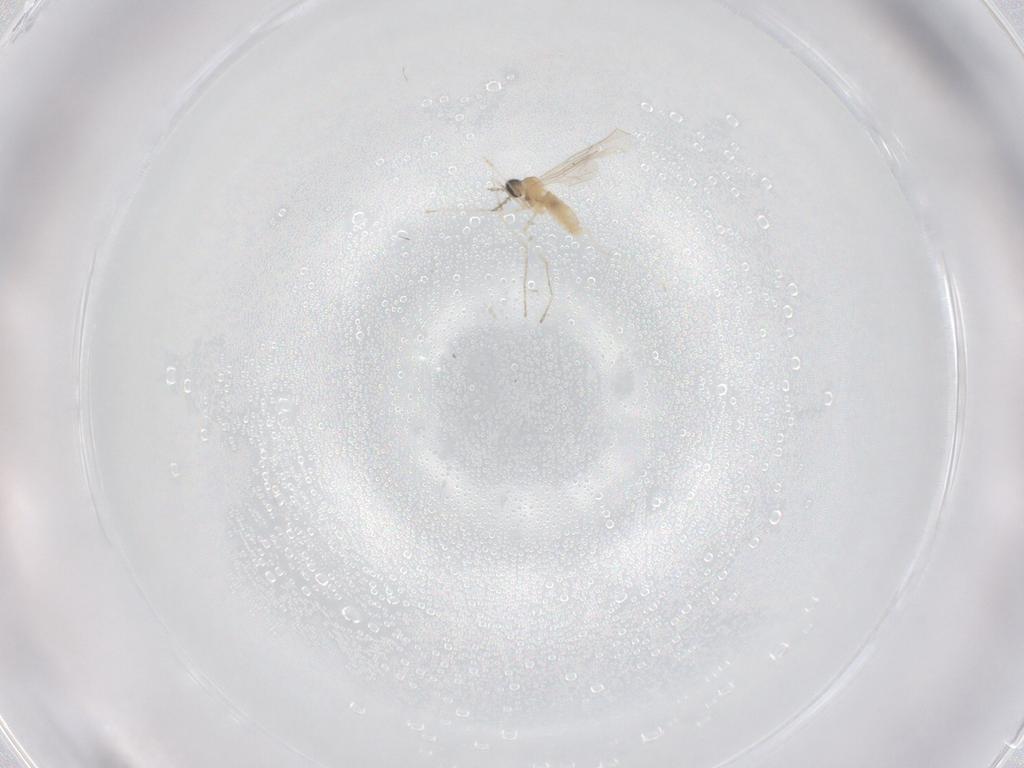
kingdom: Animalia
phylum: Arthropoda
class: Insecta
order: Diptera
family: Cecidomyiidae
